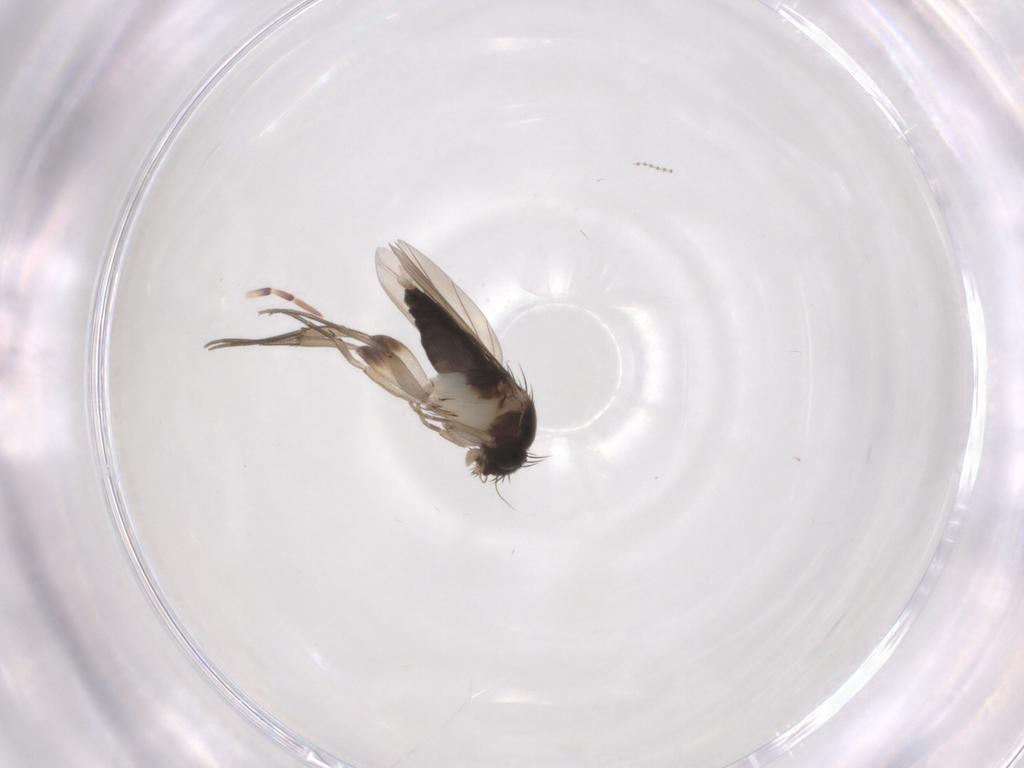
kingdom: Animalia
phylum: Arthropoda
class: Insecta
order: Diptera
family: Phoridae
